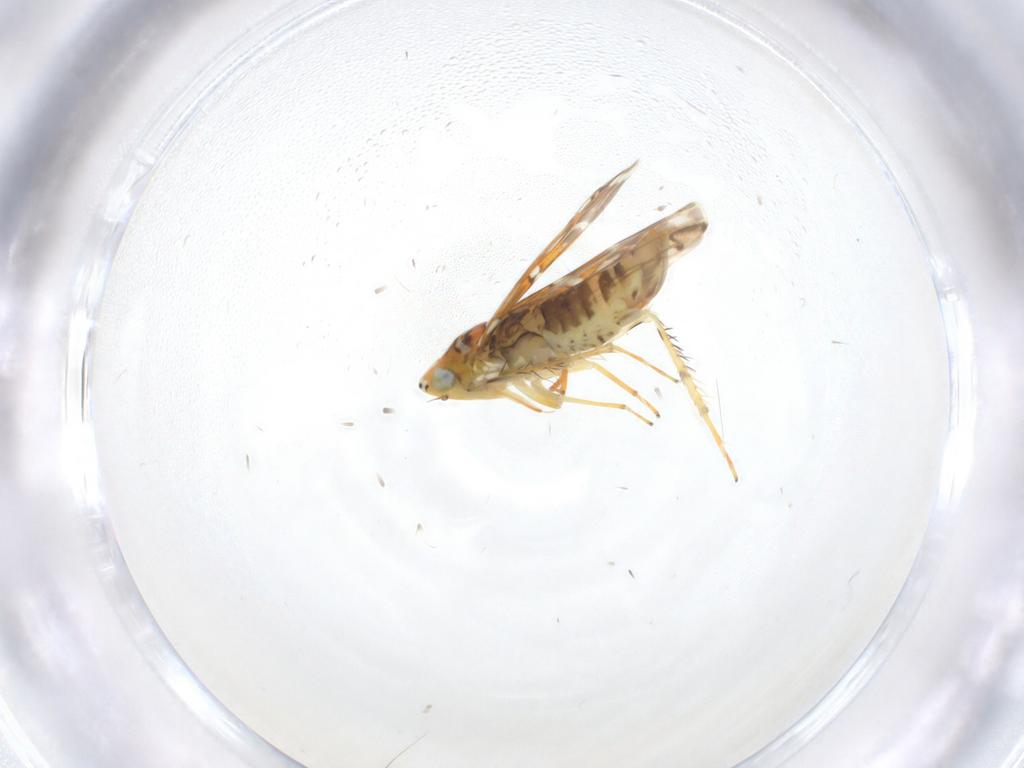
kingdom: Animalia
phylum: Arthropoda
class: Insecta
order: Hemiptera
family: Cicadellidae
